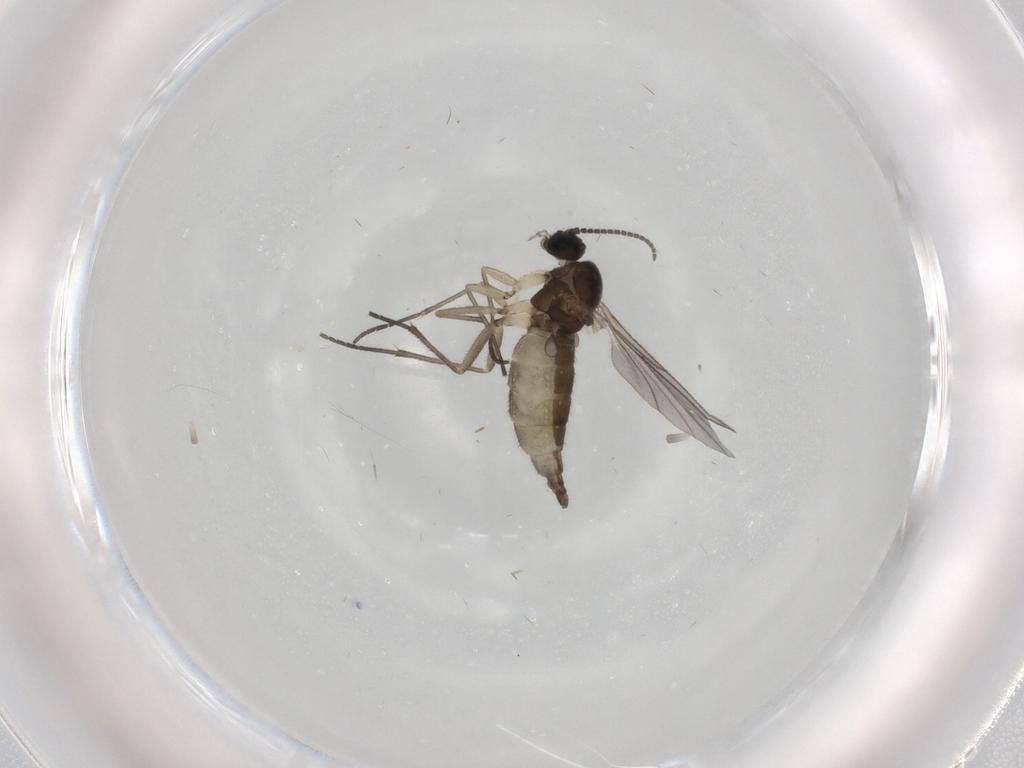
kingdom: Animalia
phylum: Arthropoda
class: Insecta
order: Diptera
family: Sciaridae
